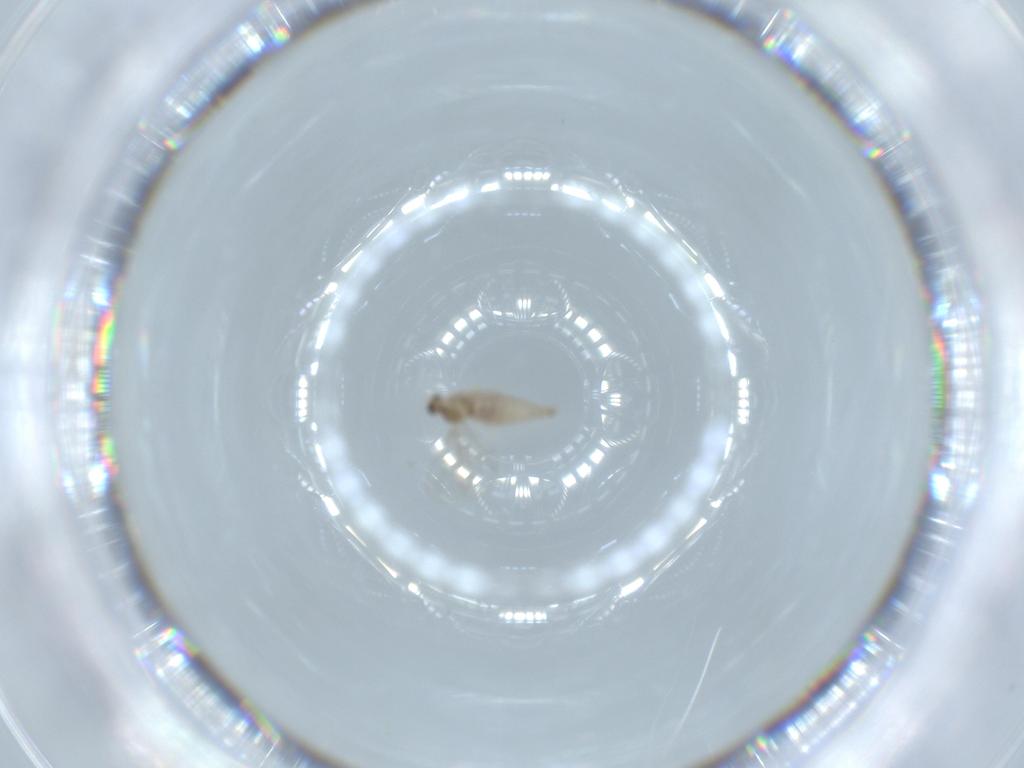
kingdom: Animalia
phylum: Arthropoda
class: Insecta
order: Diptera
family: Cecidomyiidae
